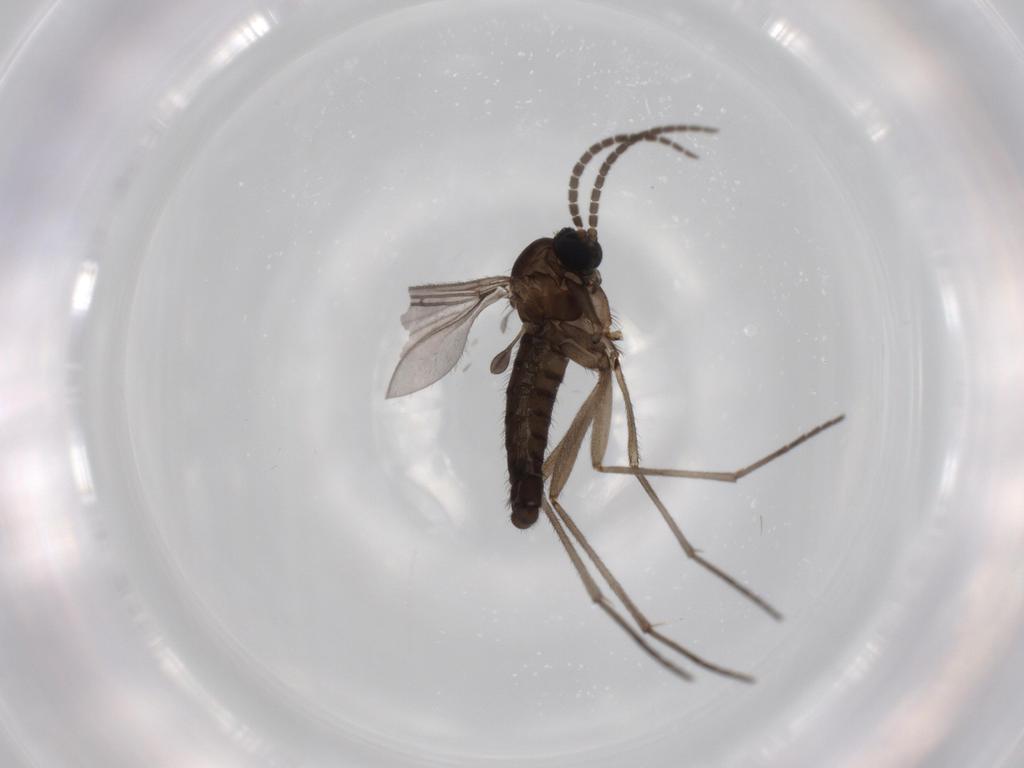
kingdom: Animalia
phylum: Arthropoda
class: Insecta
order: Diptera
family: Sciaridae
